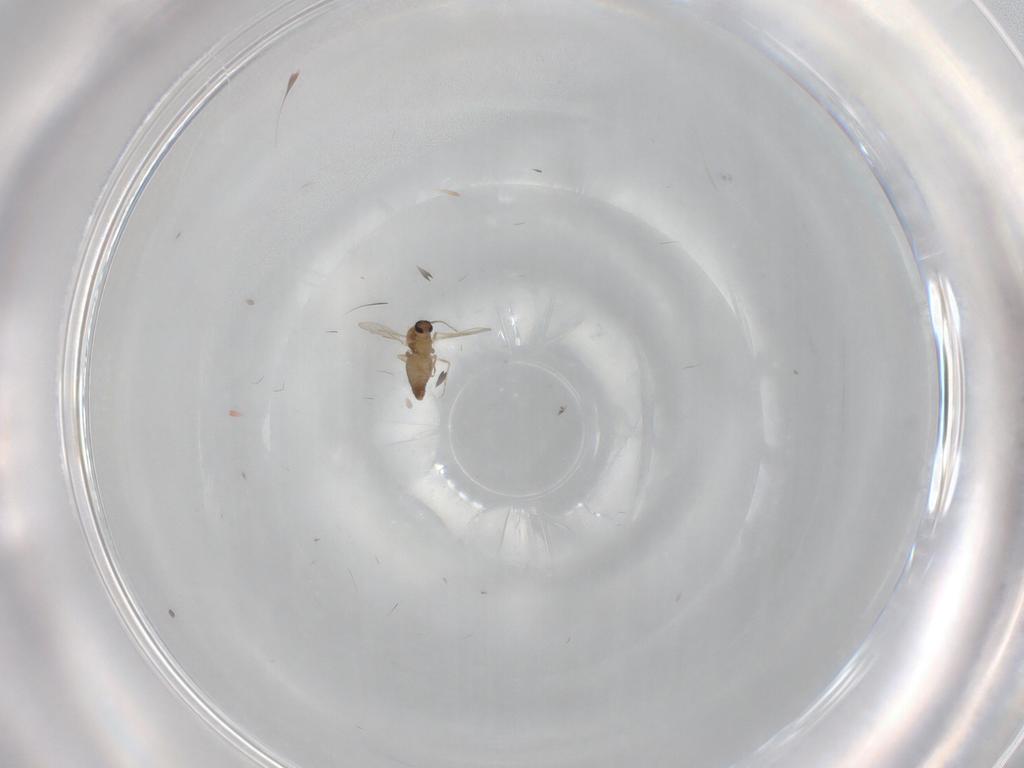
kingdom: Animalia
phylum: Arthropoda
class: Insecta
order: Diptera
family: Ceratopogonidae
